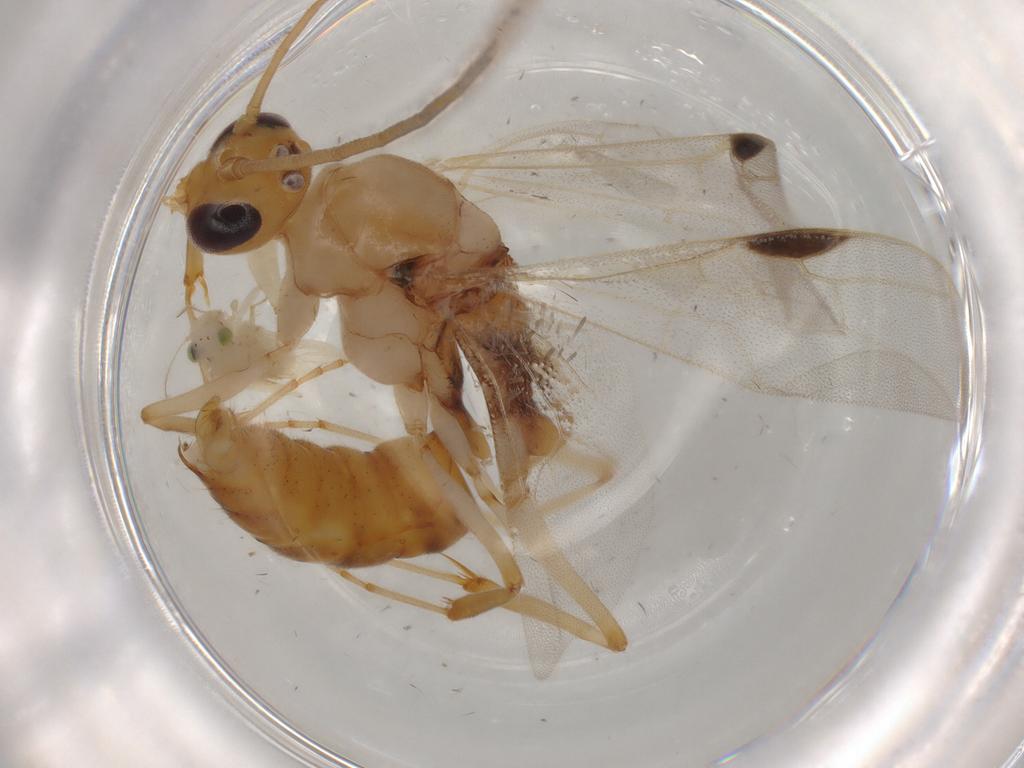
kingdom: Animalia
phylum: Arthropoda
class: Insecta
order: Hymenoptera
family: Formicidae
